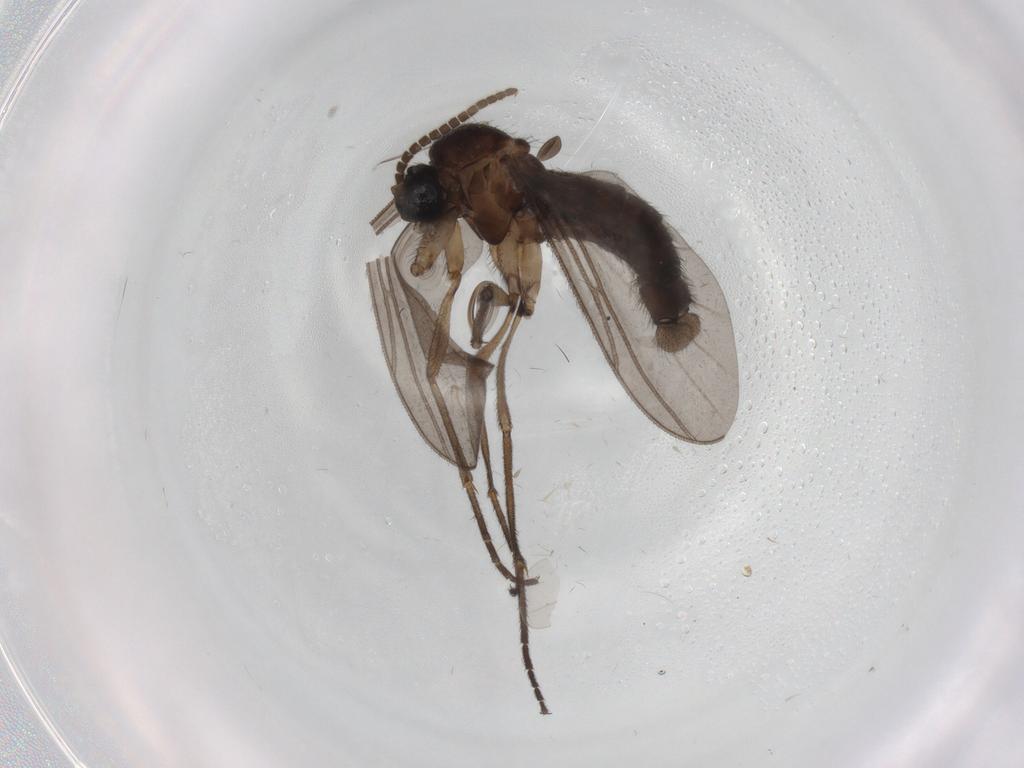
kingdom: Animalia
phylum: Arthropoda
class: Insecta
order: Diptera
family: Sciaridae
